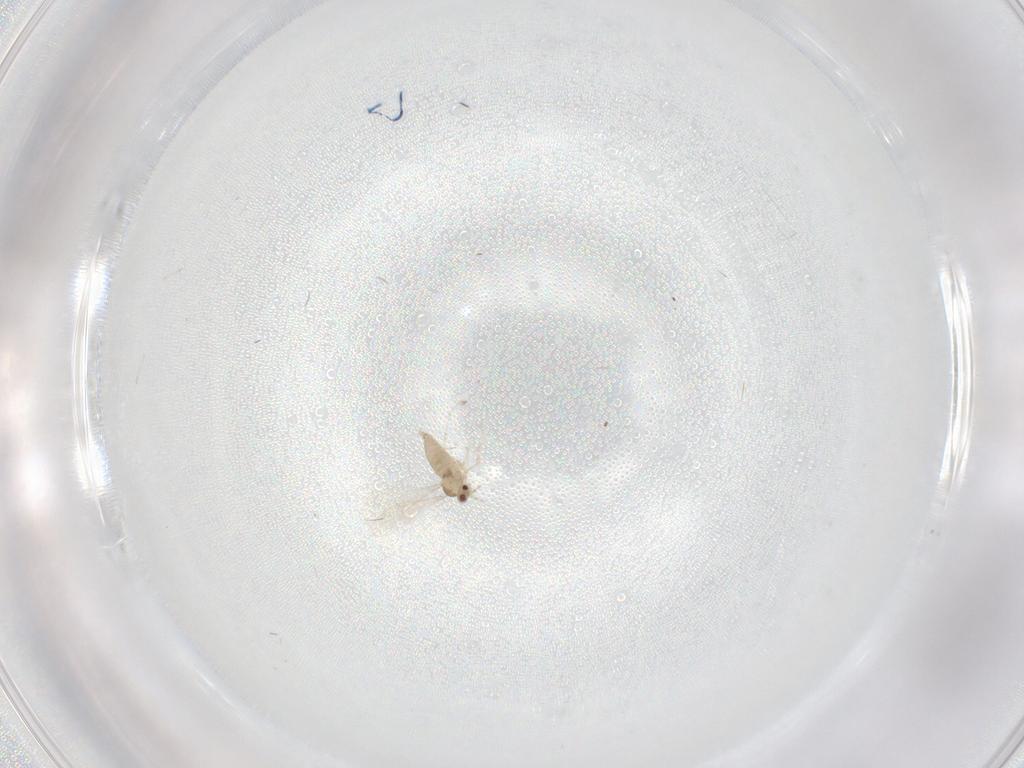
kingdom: Animalia
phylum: Arthropoda
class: Insecta
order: Diptera
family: Cecidomyiidae
